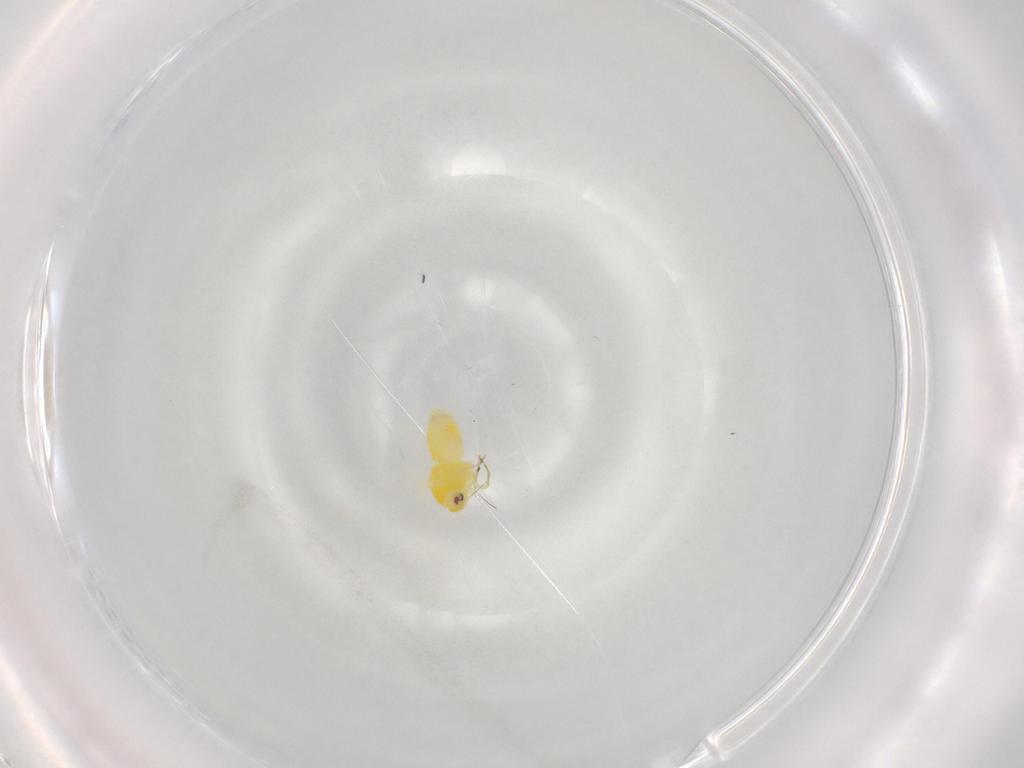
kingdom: Animalia
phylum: Arthropoda
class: Insecta
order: Hemiptera
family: Aleyrodidae
